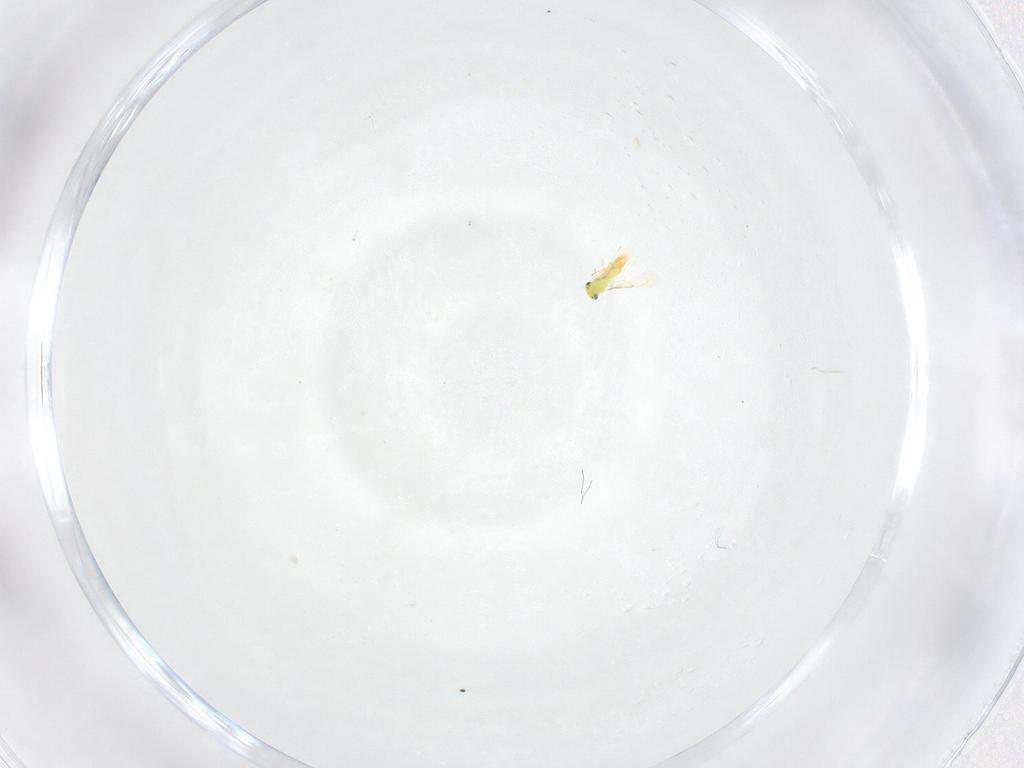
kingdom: Animalia
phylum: Arthropoda
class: Insecta
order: Hymenoptera
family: Trichogrammatidae
